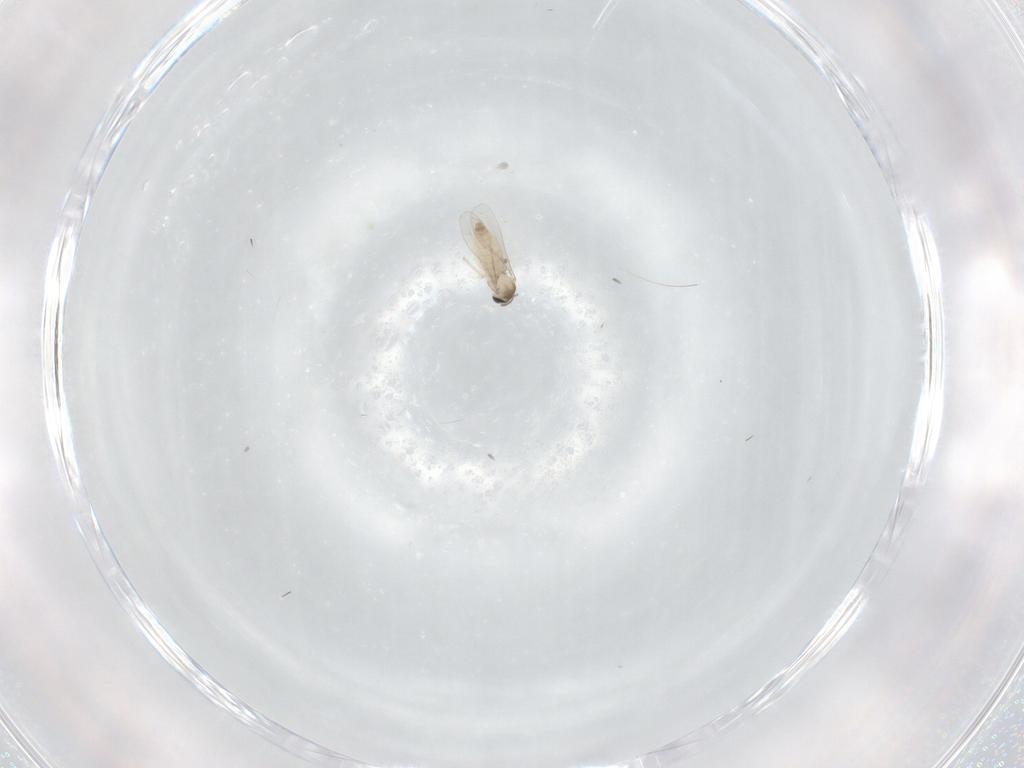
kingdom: Animalia
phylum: Arthropoda
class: Insecta
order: Diptera
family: Cecidomyiidae
